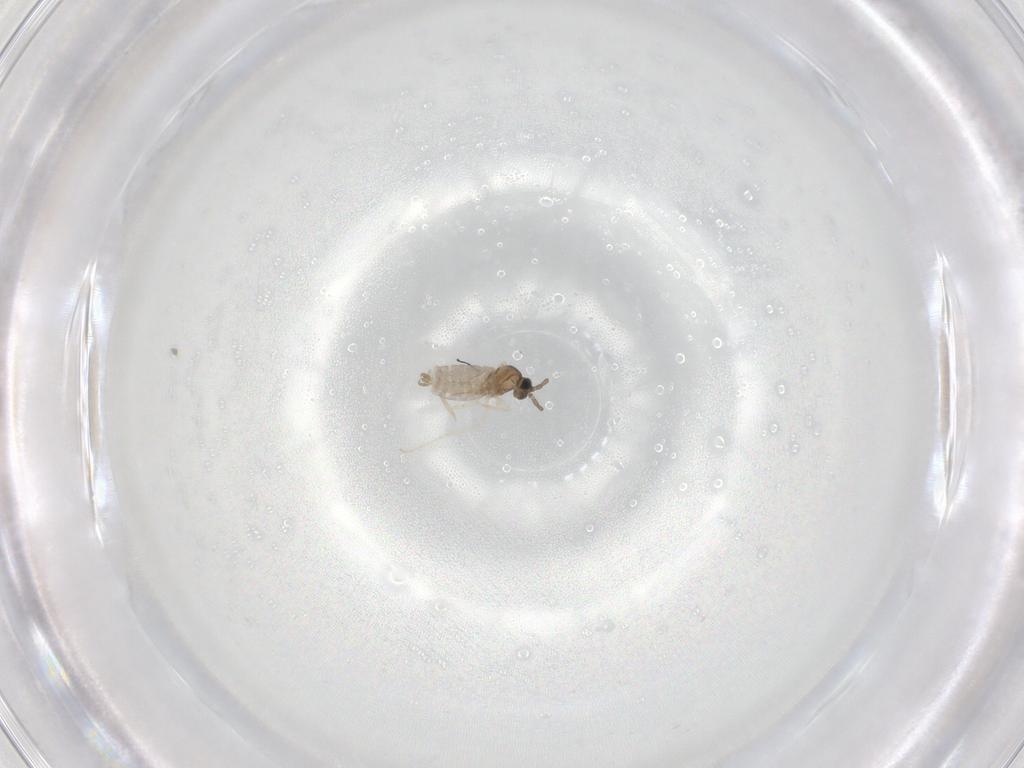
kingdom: Animalia
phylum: Arthropoda
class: Insecta
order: Diptera
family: Cecidomyiidae
